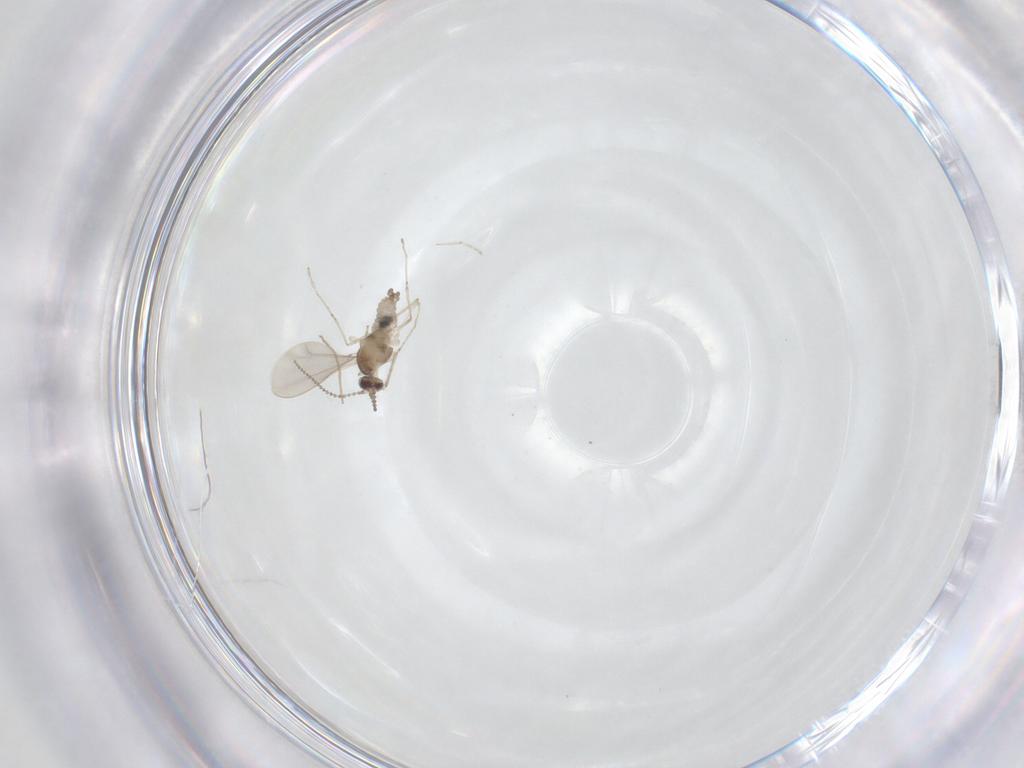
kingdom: Animalia
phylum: Arthropoda
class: Insecta
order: Diptera
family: Cecidomyiidae
